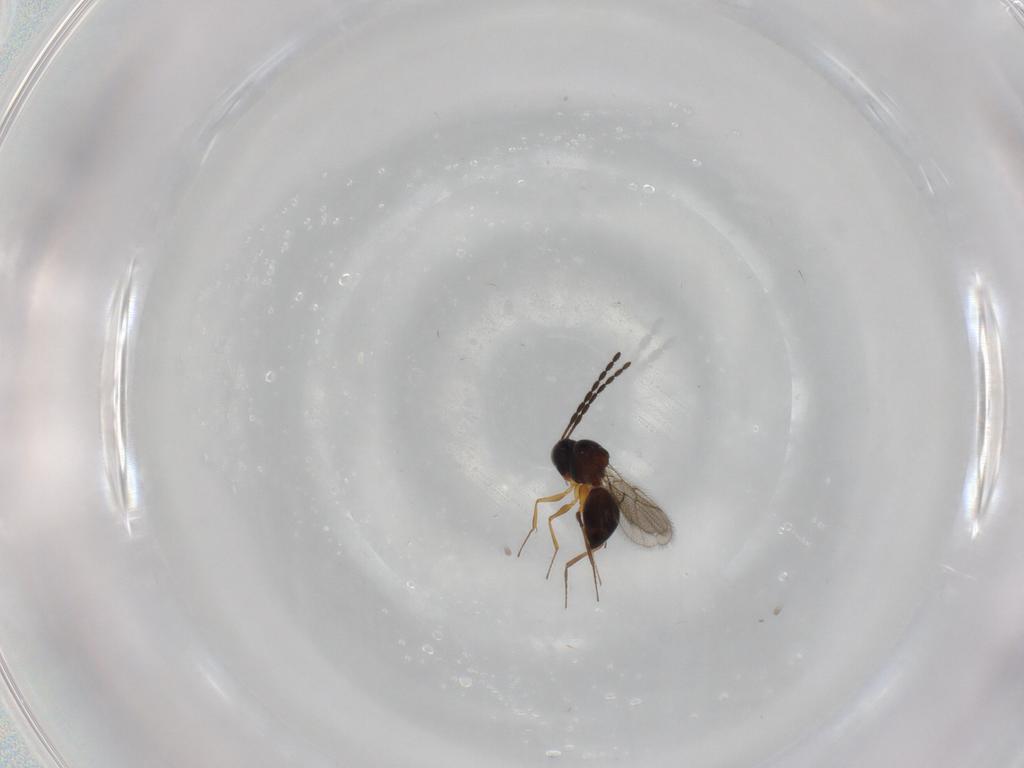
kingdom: Animalia
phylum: Arthropoda
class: Insecta
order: Hymenoptera
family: Figitidae
